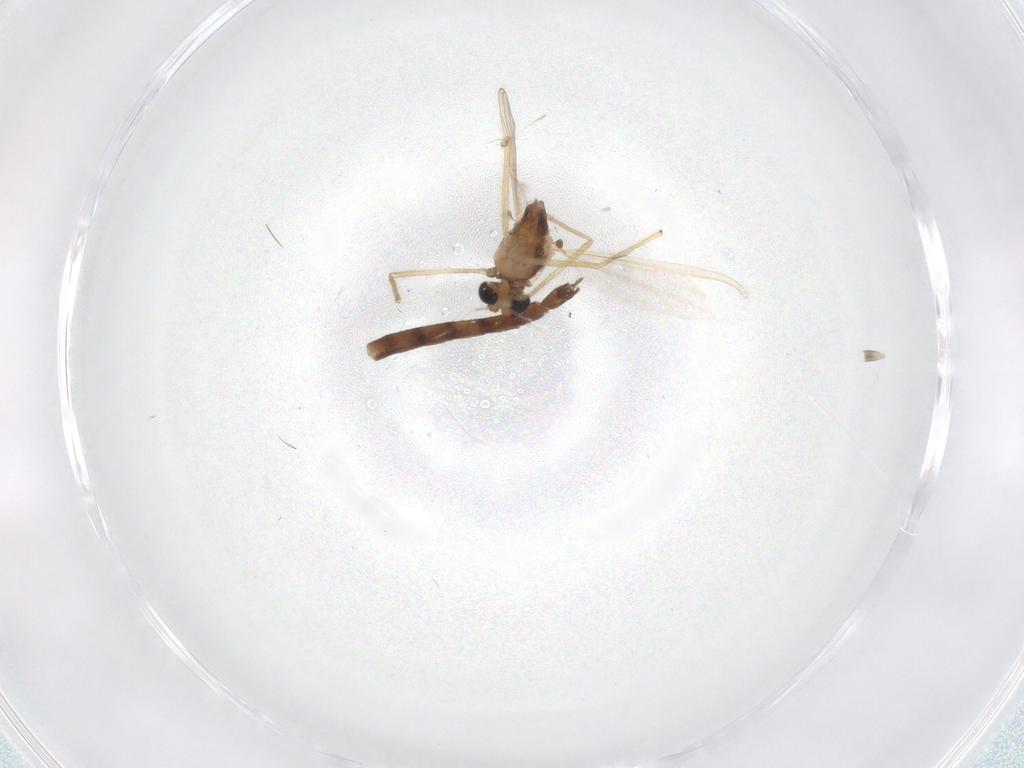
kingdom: Animalia
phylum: Arthropoda
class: Insecta
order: Diptera
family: Chironomidae
